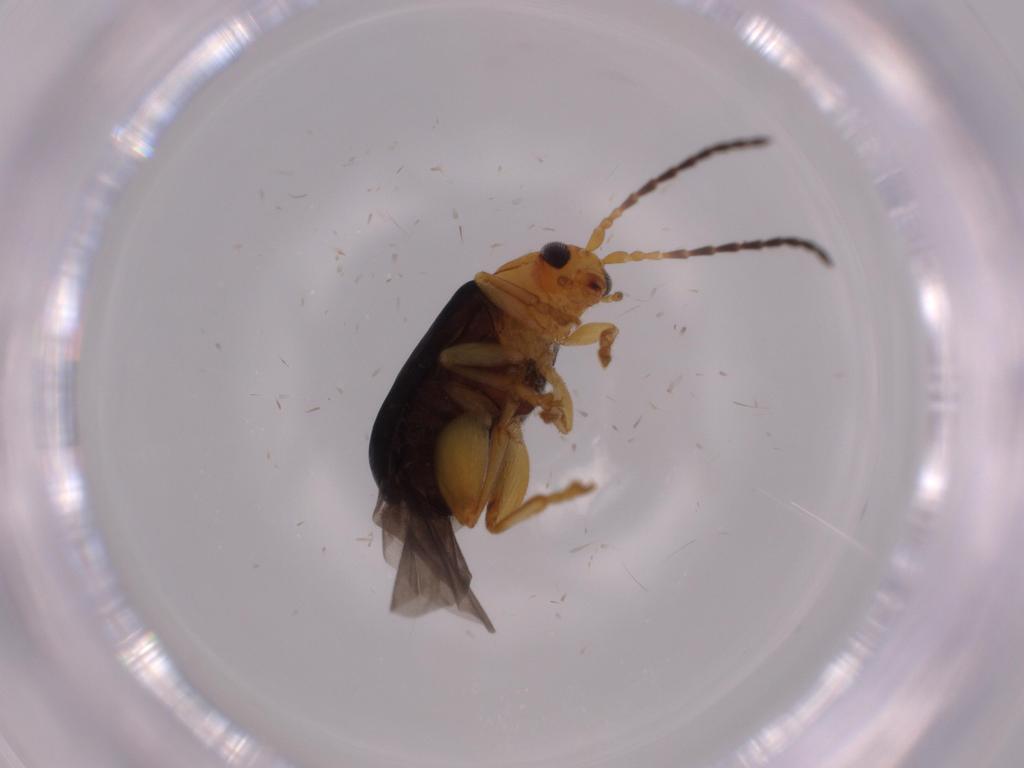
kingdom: Animalia
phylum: Arthropoda
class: Insecta
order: Coleoptera
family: Chrysomelidae
